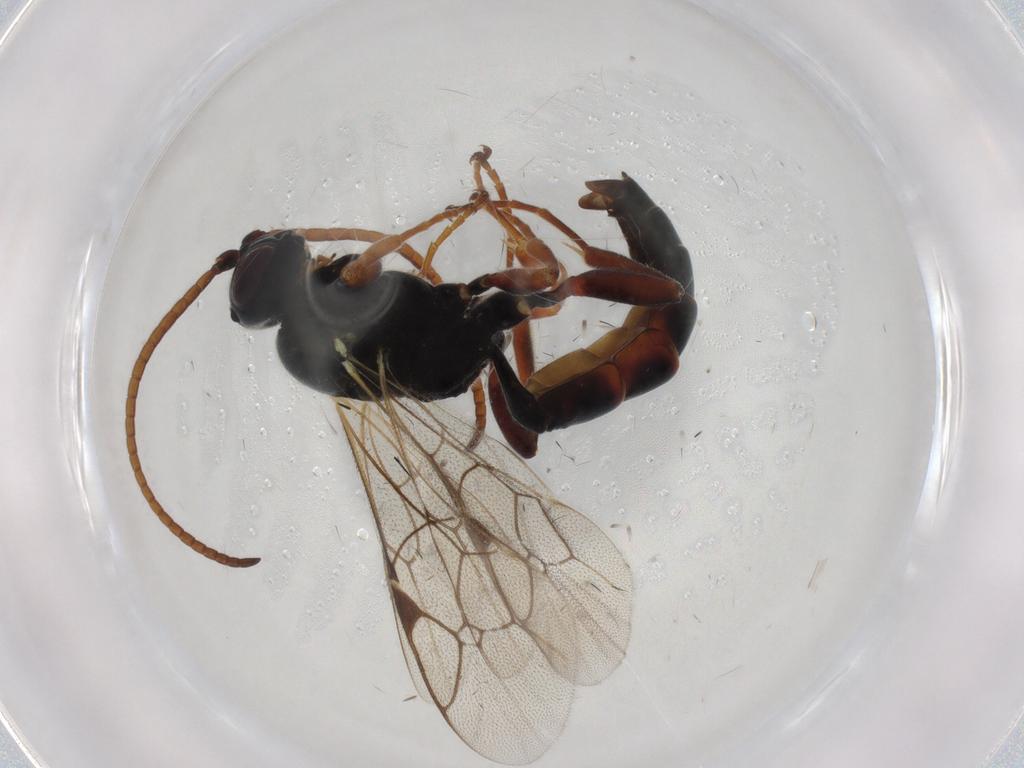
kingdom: Animalia
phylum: Arthropoda
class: Insecta
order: Hymenoptera
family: Ichneumonidae
